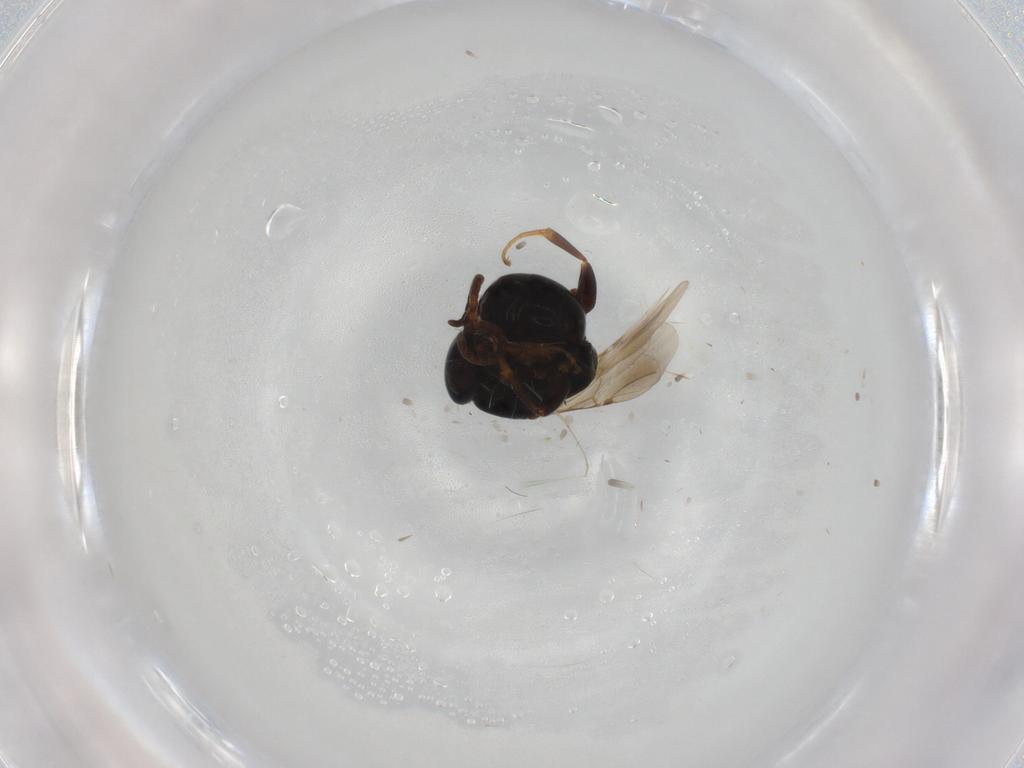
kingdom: Animalia
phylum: Arthropoda
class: Insecta
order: Hymenoptera
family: Bethylidae
